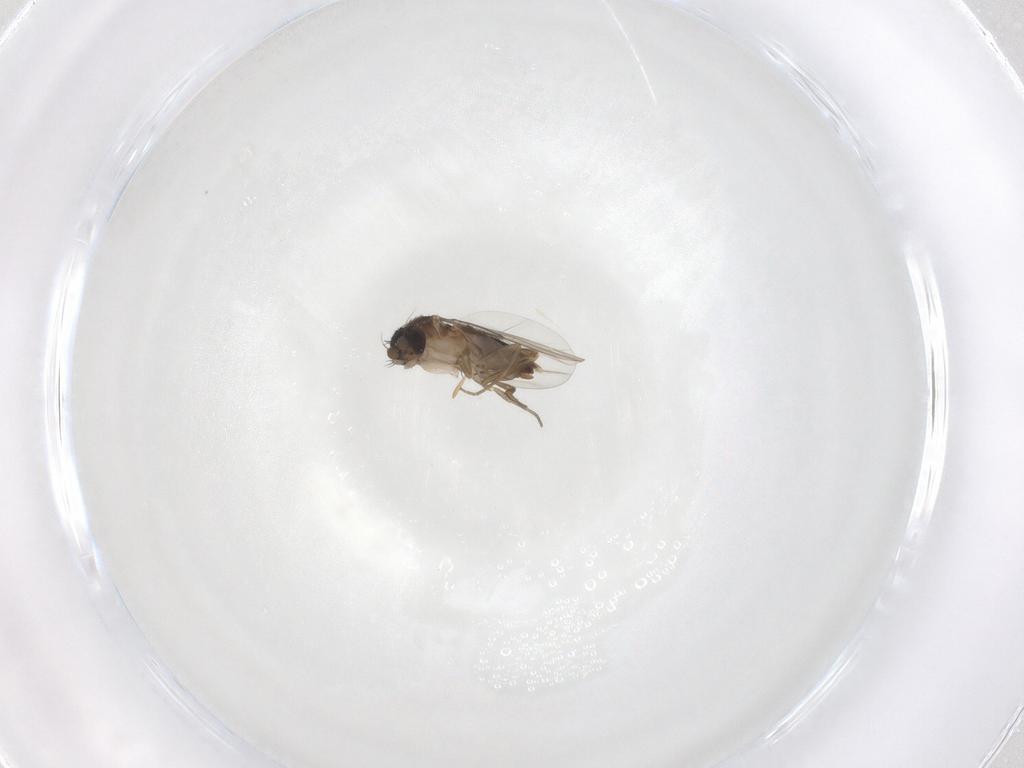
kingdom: Animalia
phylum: Arthropoda
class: Insecta
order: Diptera
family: Phoridae
